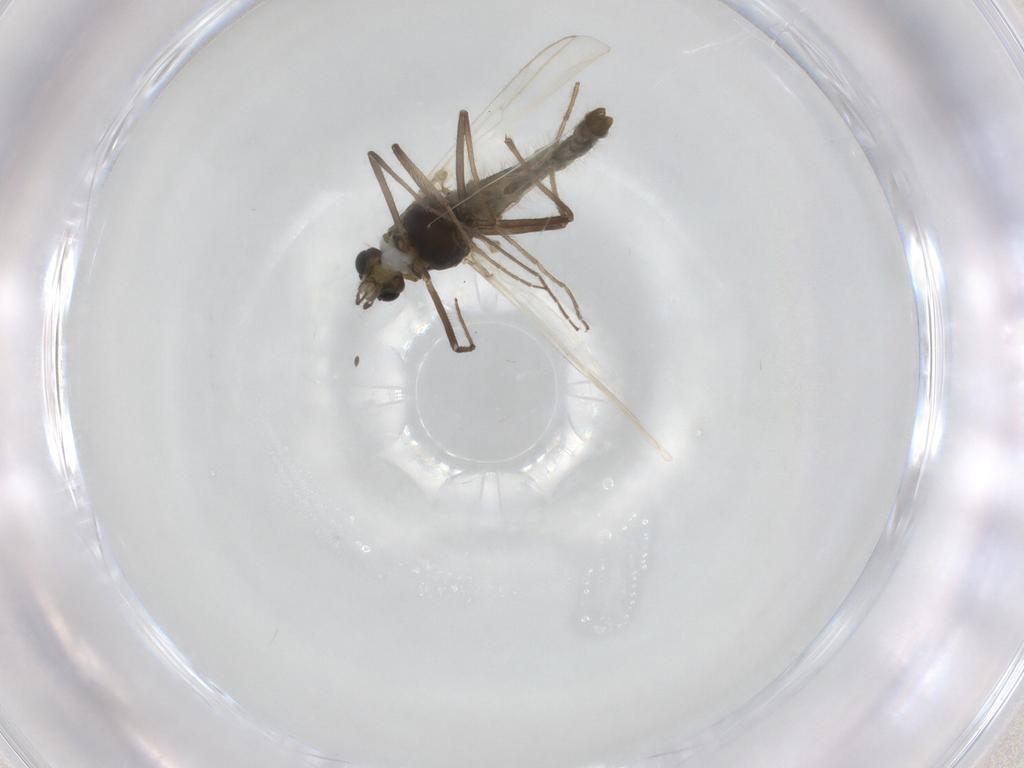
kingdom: Animalia
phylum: Arthropoda
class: Insecta
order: Diptera
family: Chironomidae
